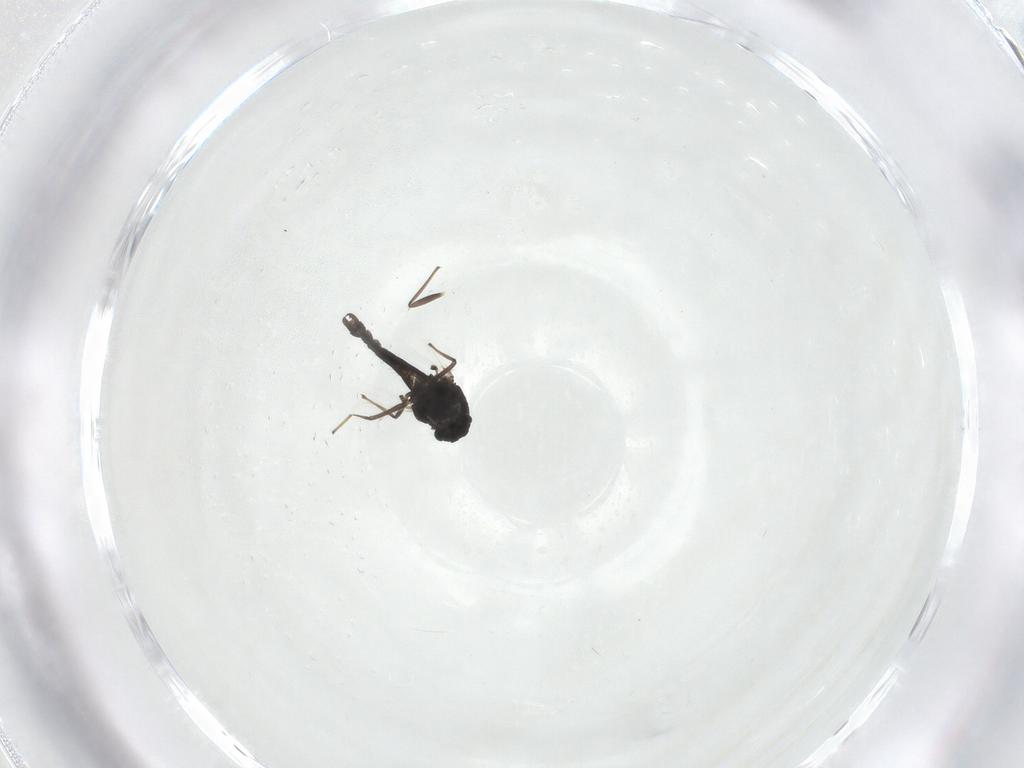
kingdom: Animalia
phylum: Arthropoda
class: Insecta
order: Diptera
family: Chironomidae
